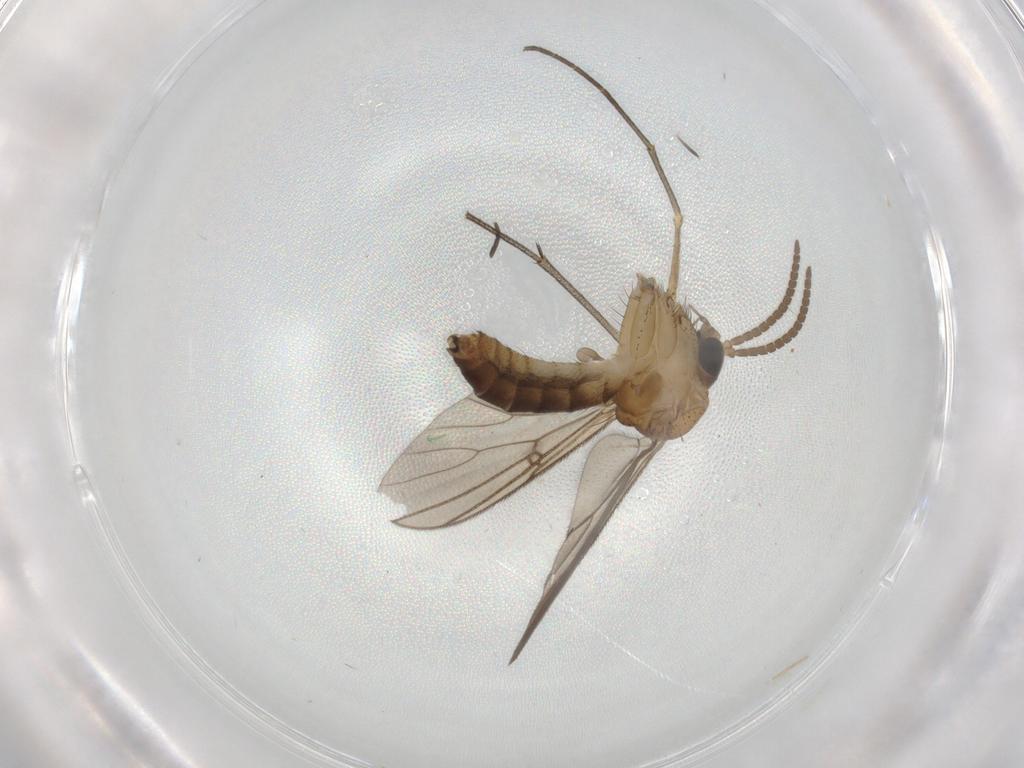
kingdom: Animalia
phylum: Arthropoda
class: Insecta
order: Diptera
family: Mycetophilidae
